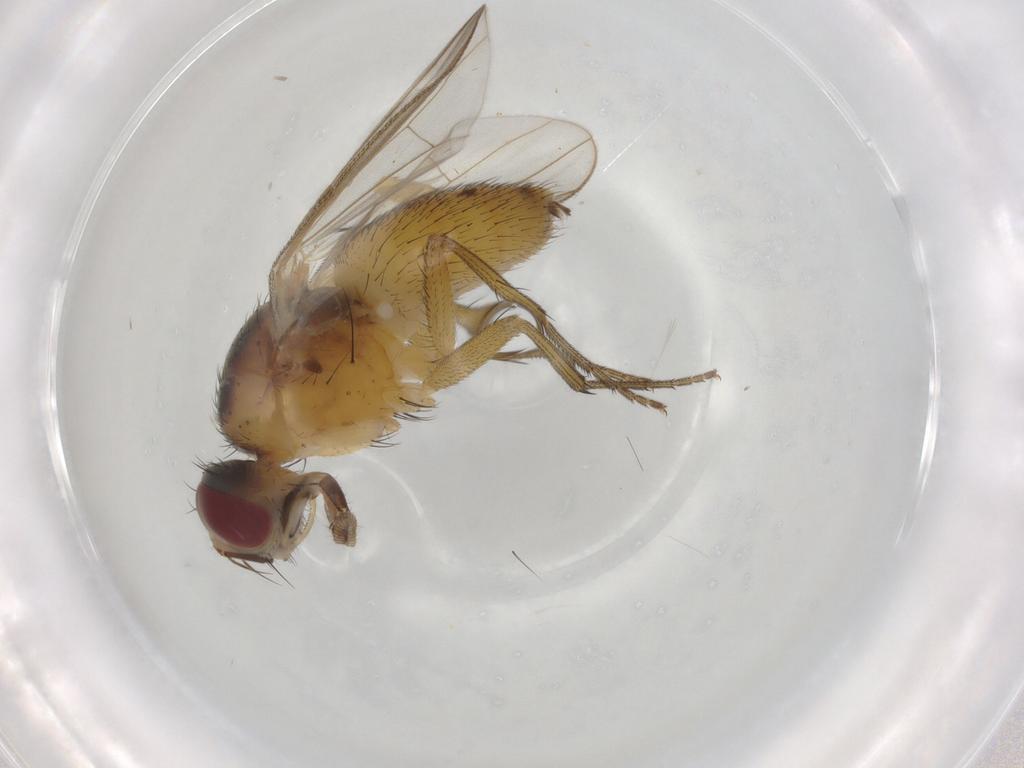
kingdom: Animalia
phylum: Arthropoda
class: Insecta
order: Diptera
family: Muscidae
